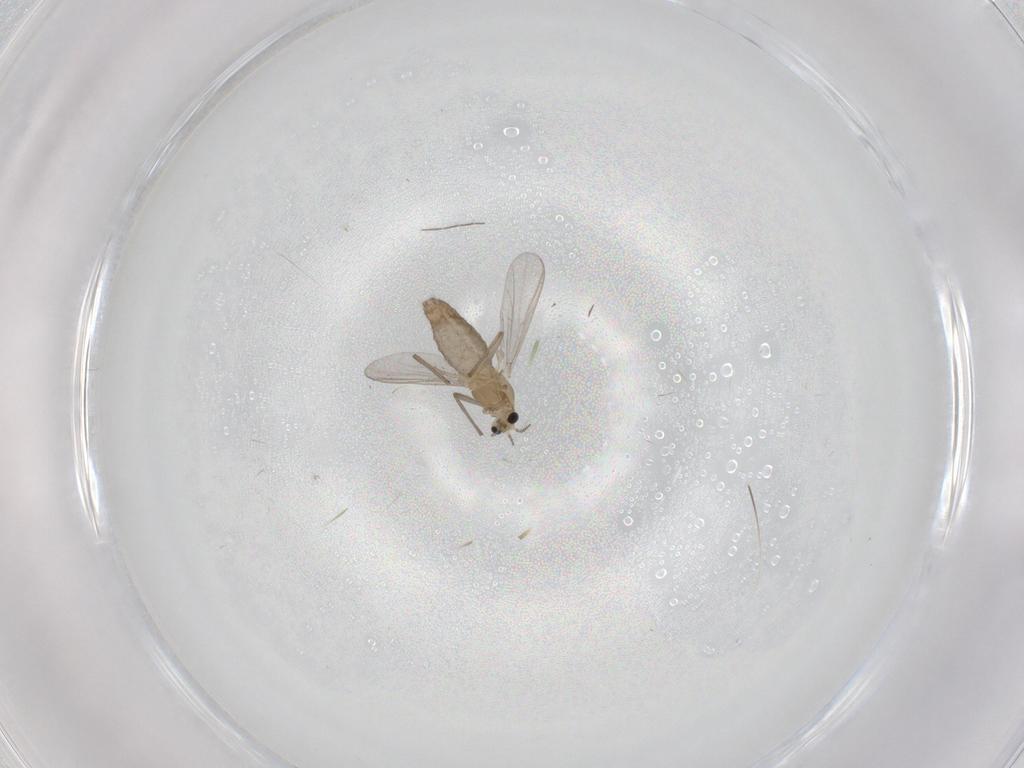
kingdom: Animalia
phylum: Arthropoda
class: Insecta
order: Diptera
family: Chironomidae
